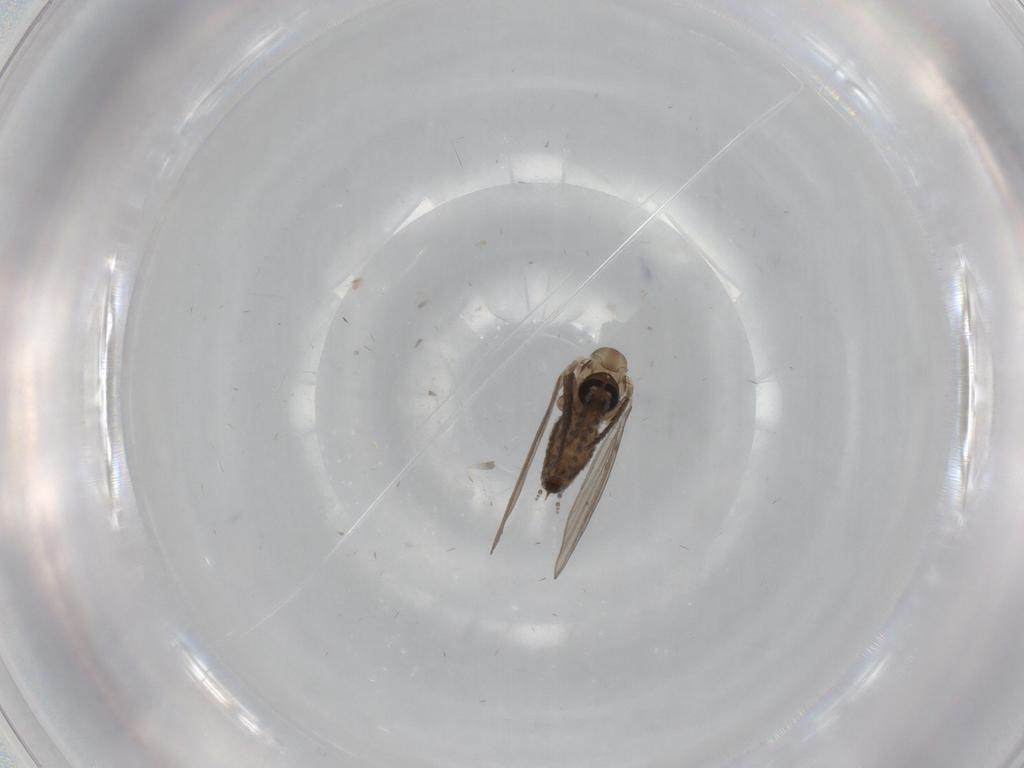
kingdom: Animalia
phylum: Arthropoda
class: Insecta
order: Diptera
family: Psychodidae
